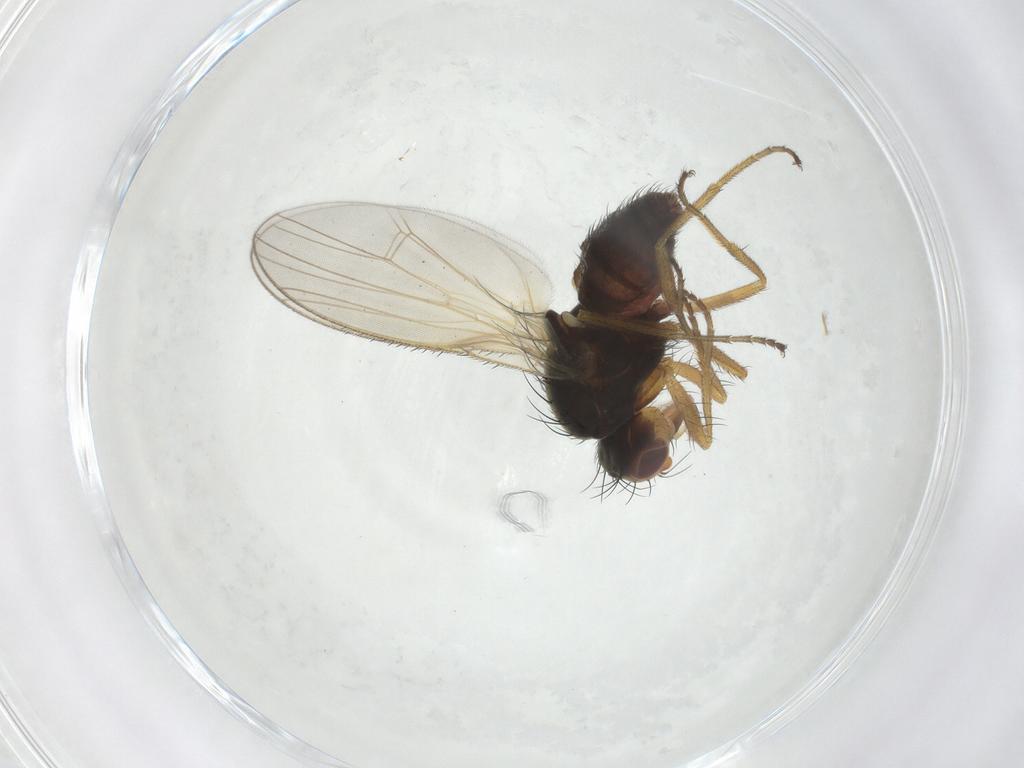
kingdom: Animalia
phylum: Arthropoda
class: Insecta
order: Diptera
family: Heleomyzidae
